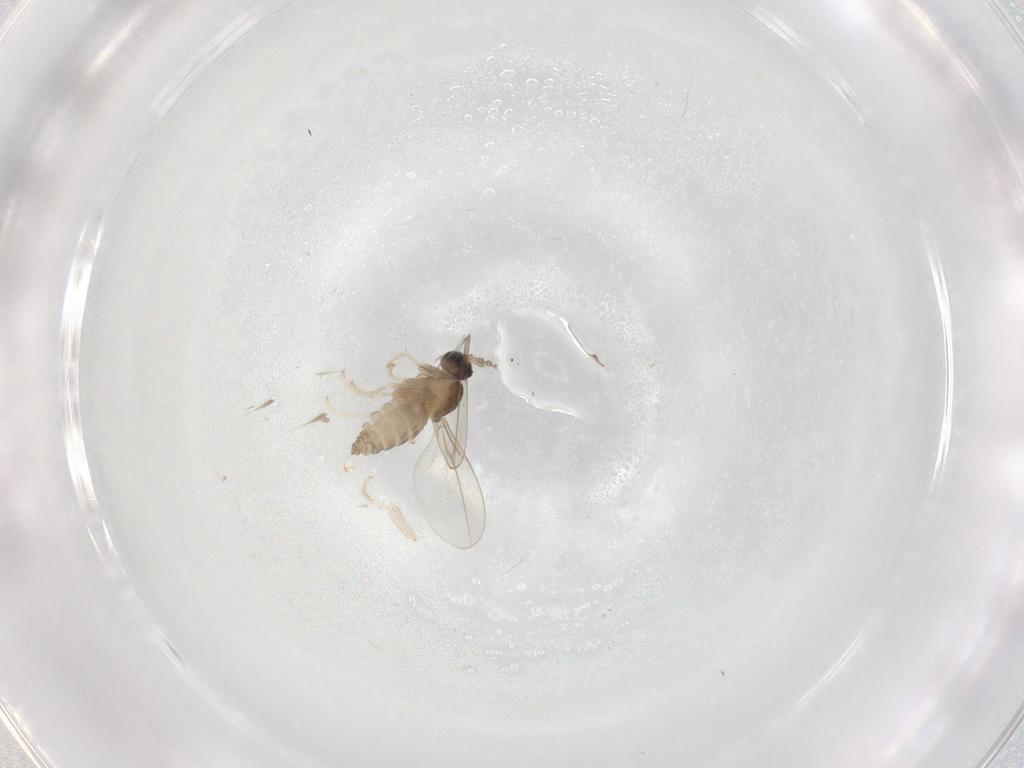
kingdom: Animalia
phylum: Arthropoda
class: Insecta
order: Diptera
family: Cecidomyiidae
